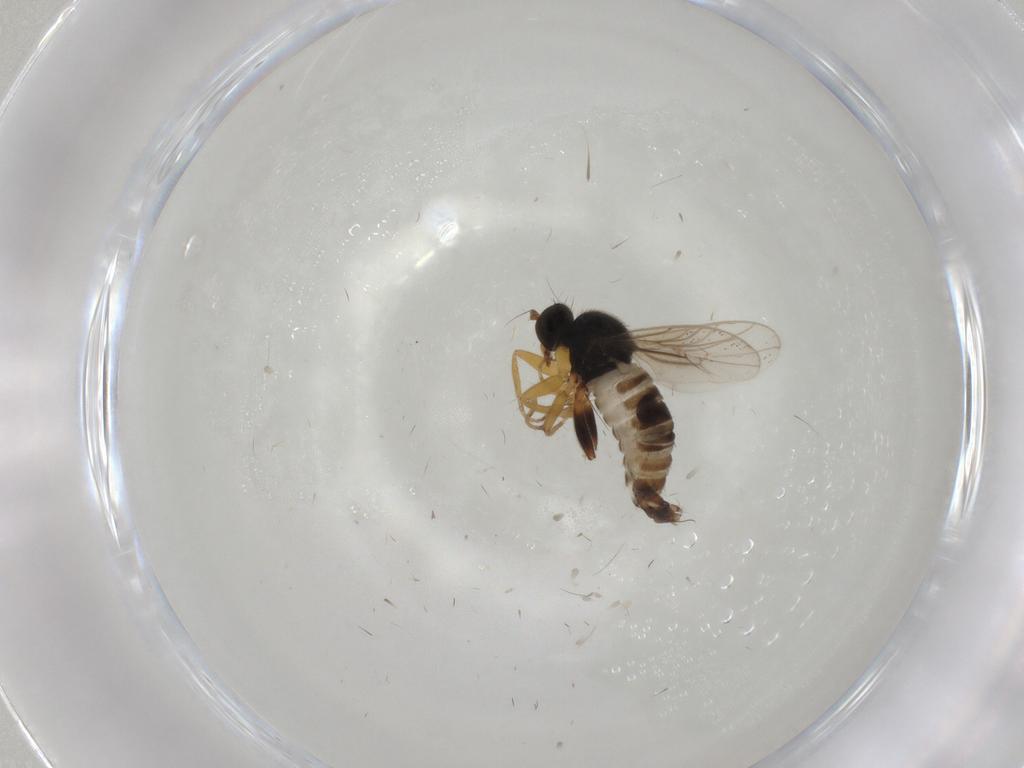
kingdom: Animalia
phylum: Arthropoda
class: Insecta
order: Diptera
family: Hybotidae
